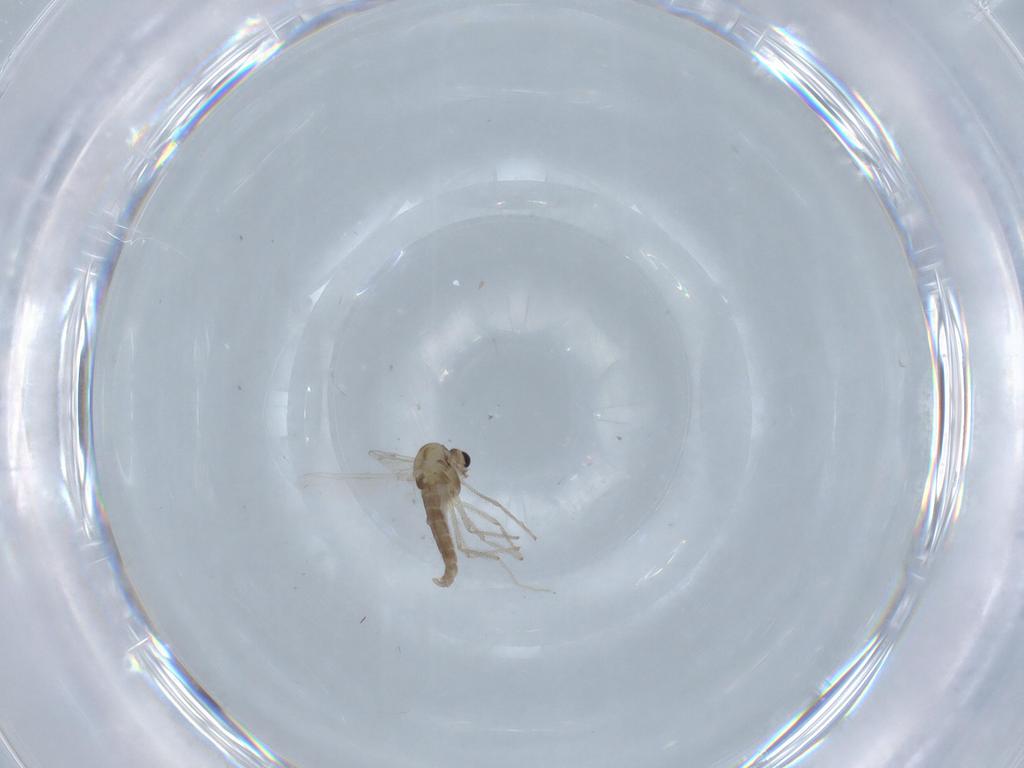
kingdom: Animalia
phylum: Arthropoda
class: Insecta
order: Diptera
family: Chironomidae
